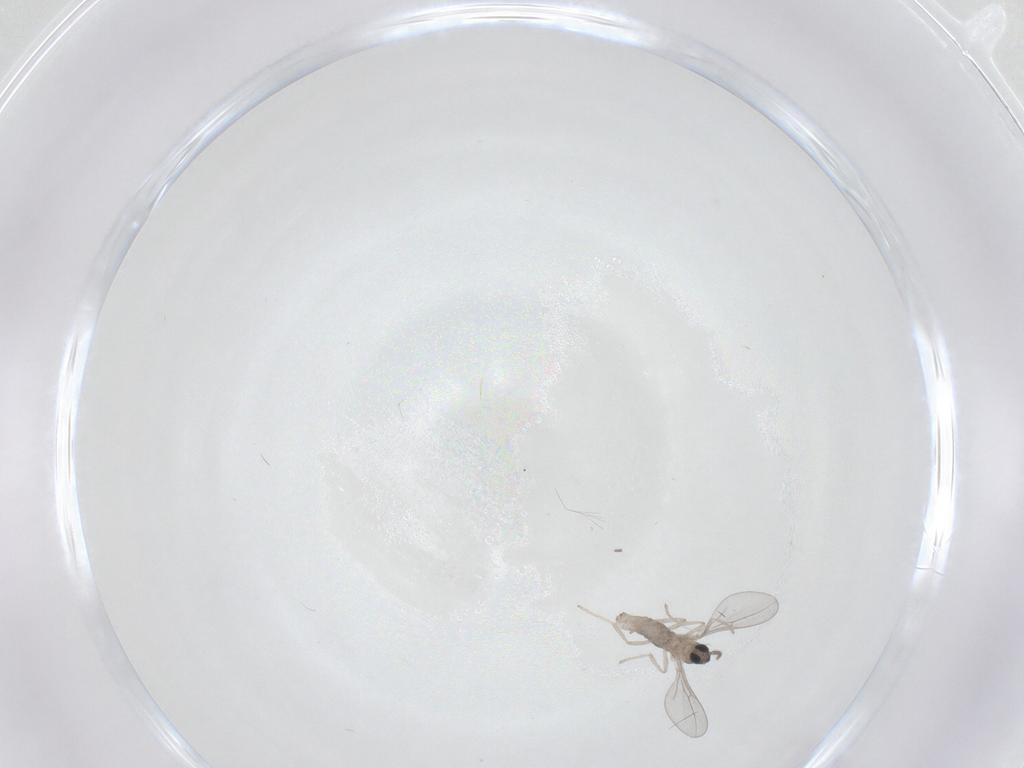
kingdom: Animalia
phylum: Arthropoda
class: Insecta
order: Diptera
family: Cecidomyiidae
